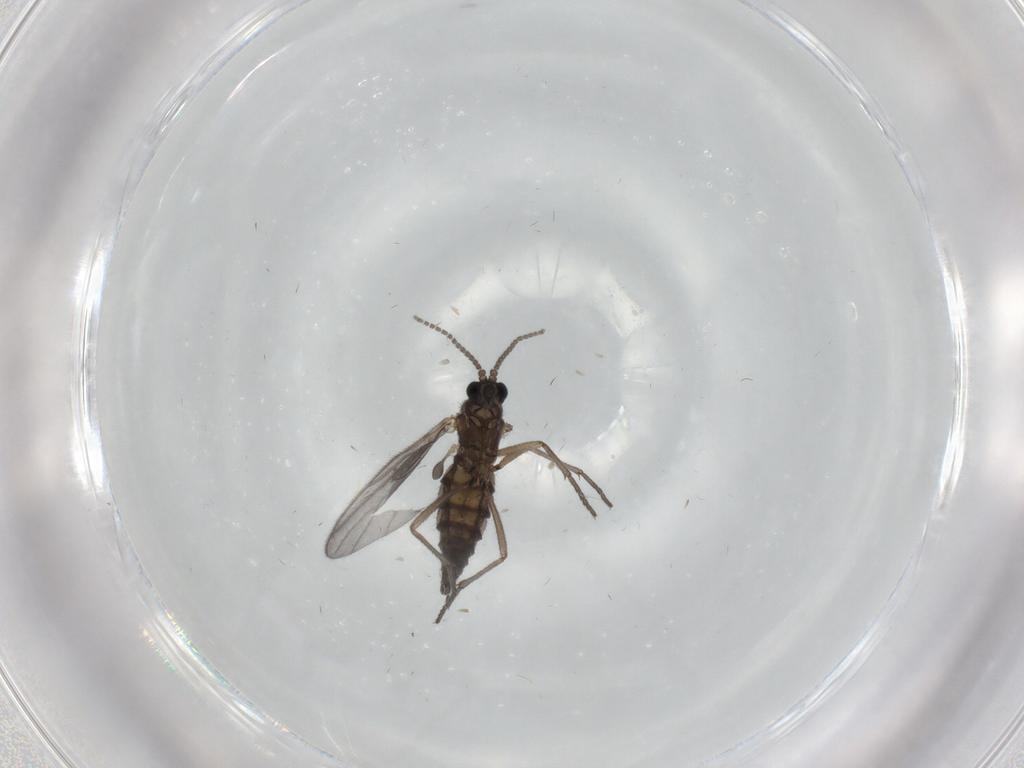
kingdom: Animalia
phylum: Arthropoda
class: Insecta
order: Diptera
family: Sciaridae
